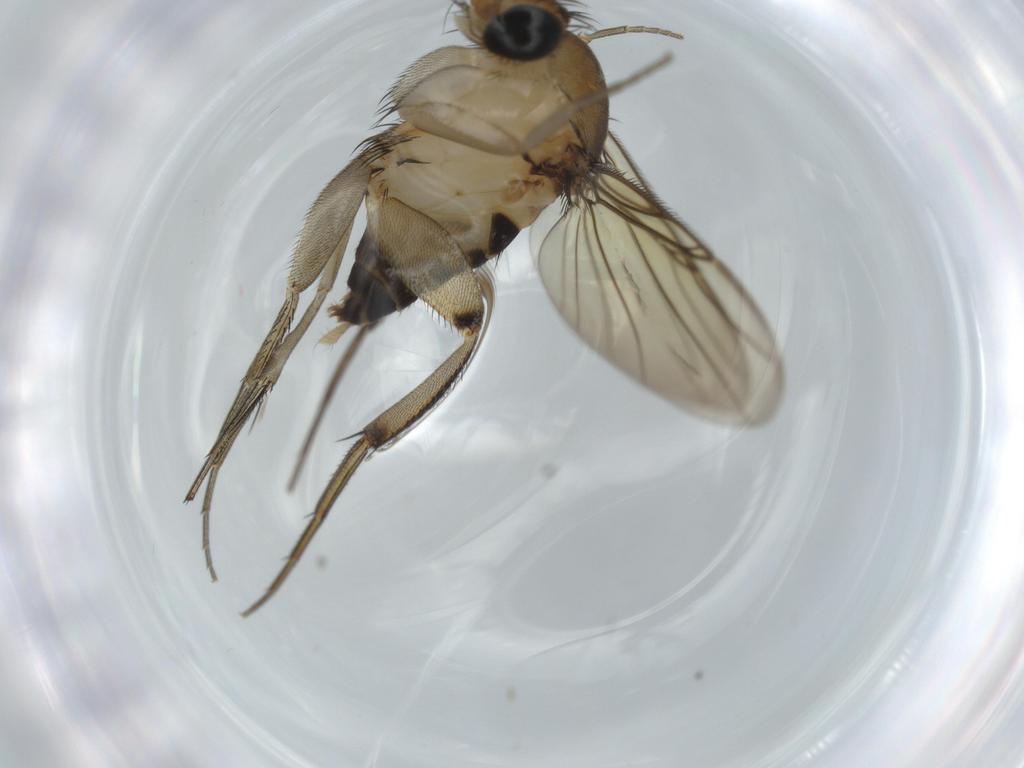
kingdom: Animalia
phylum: Arthropoda
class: Insecta
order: Diptera
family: Phoridae
